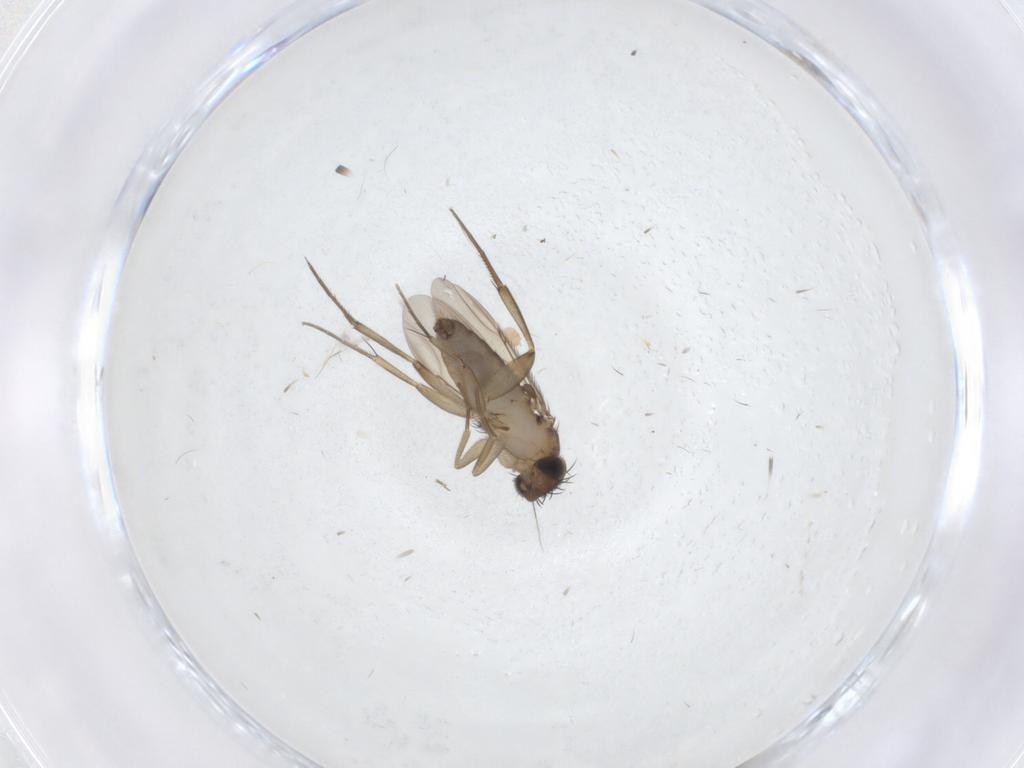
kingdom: Animalia
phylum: Arthropoda
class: Insecta
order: Diptera
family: Phoridae
